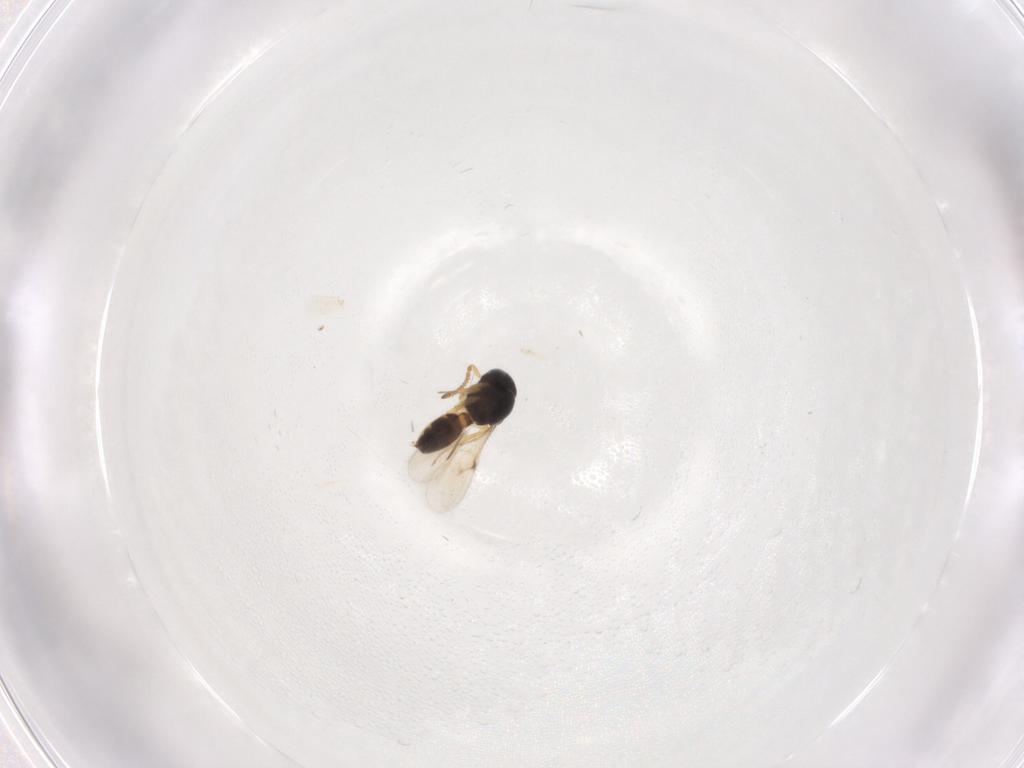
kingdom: Animalia
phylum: Arthropoda
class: Insecta
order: Hymenoptera
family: Scelionidae
